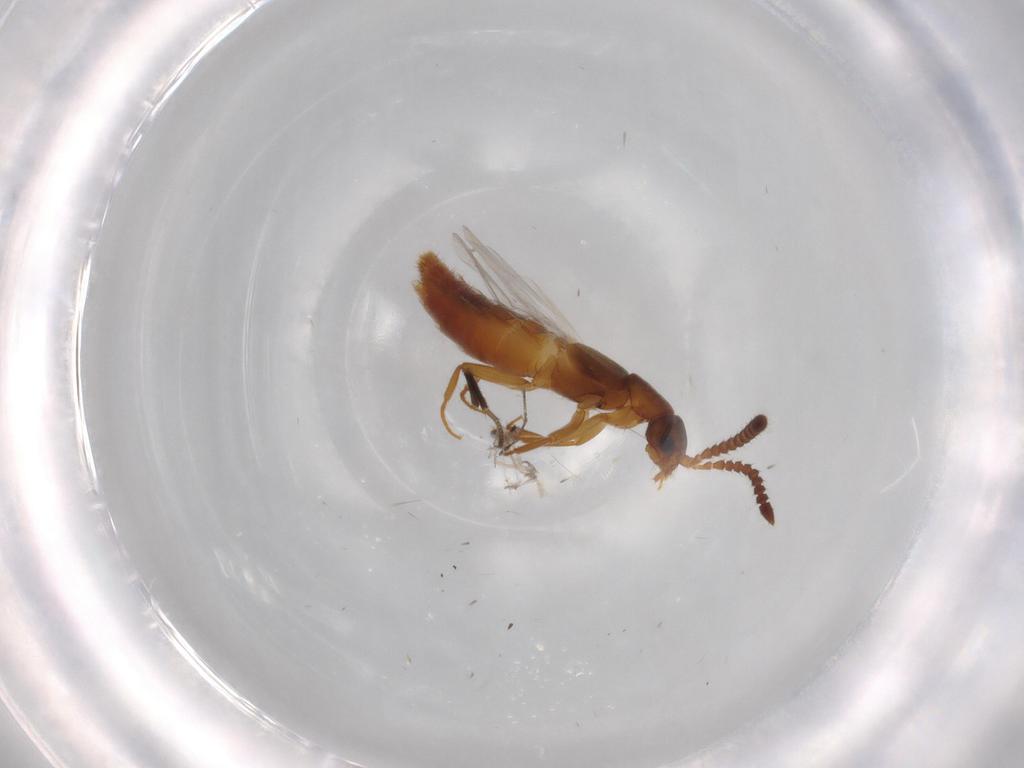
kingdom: Animalia
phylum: Arthropoda
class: Insecta
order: Coleoptera
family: Staphylinidae
